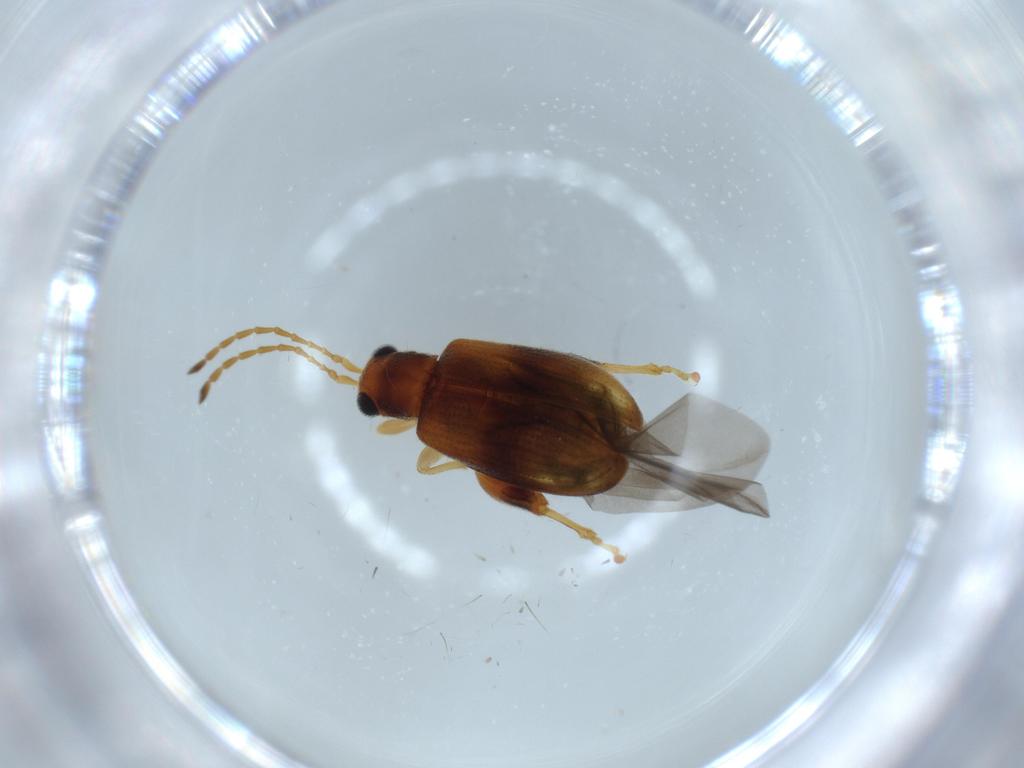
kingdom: Animalia
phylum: Arthropoda
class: Insecta
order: Coleoptera
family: Chrysomelidae
